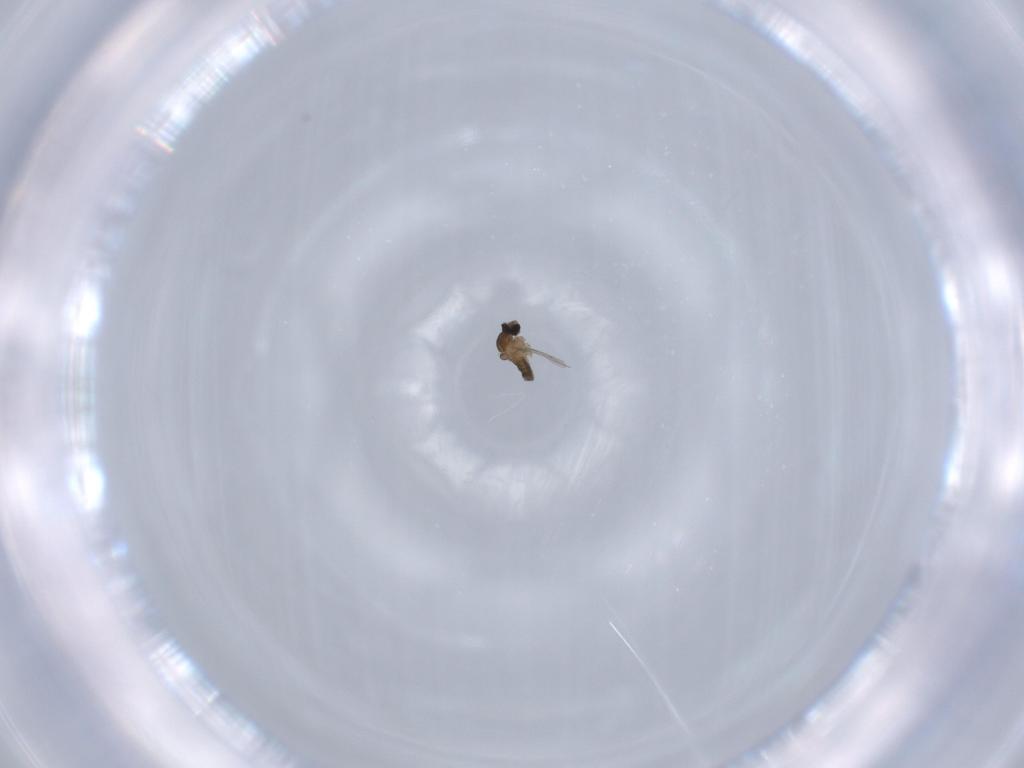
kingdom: Animalia
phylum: Arthropoda
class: Insecta
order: Diptera
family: Cecidomyiidae
